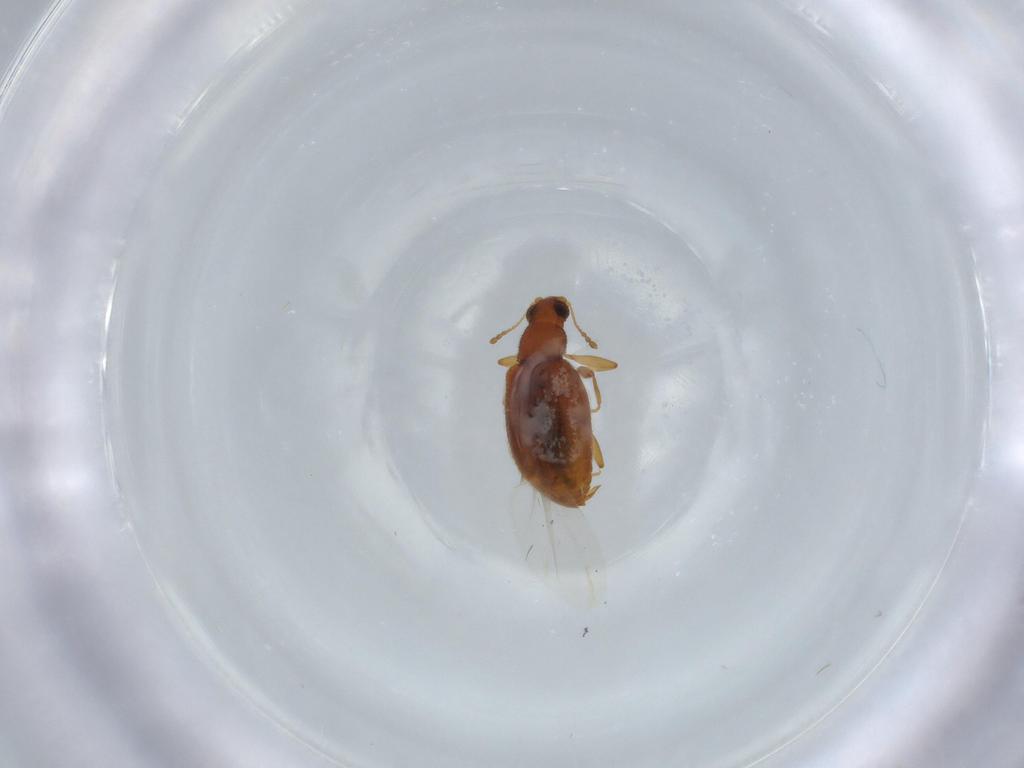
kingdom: Animalia
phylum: Arthropoda
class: Insecta
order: Coleoptera
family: Latridiidae
